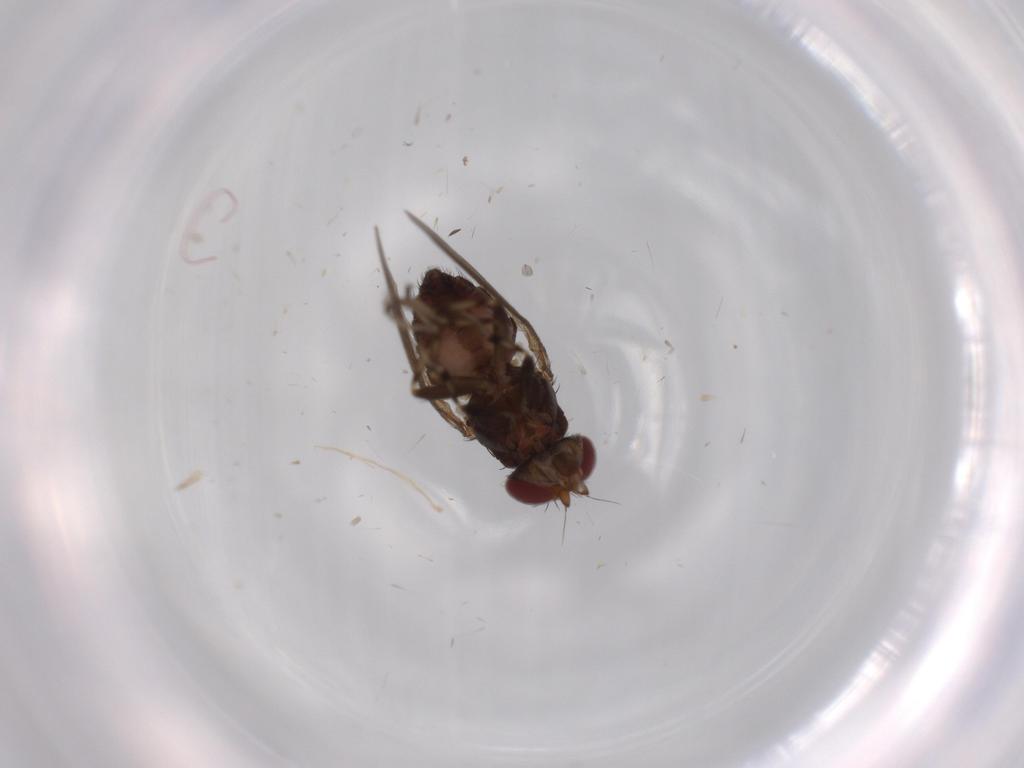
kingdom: Animalia
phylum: Arthropoda
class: Insecta
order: Diptera
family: Heleomyzidae
